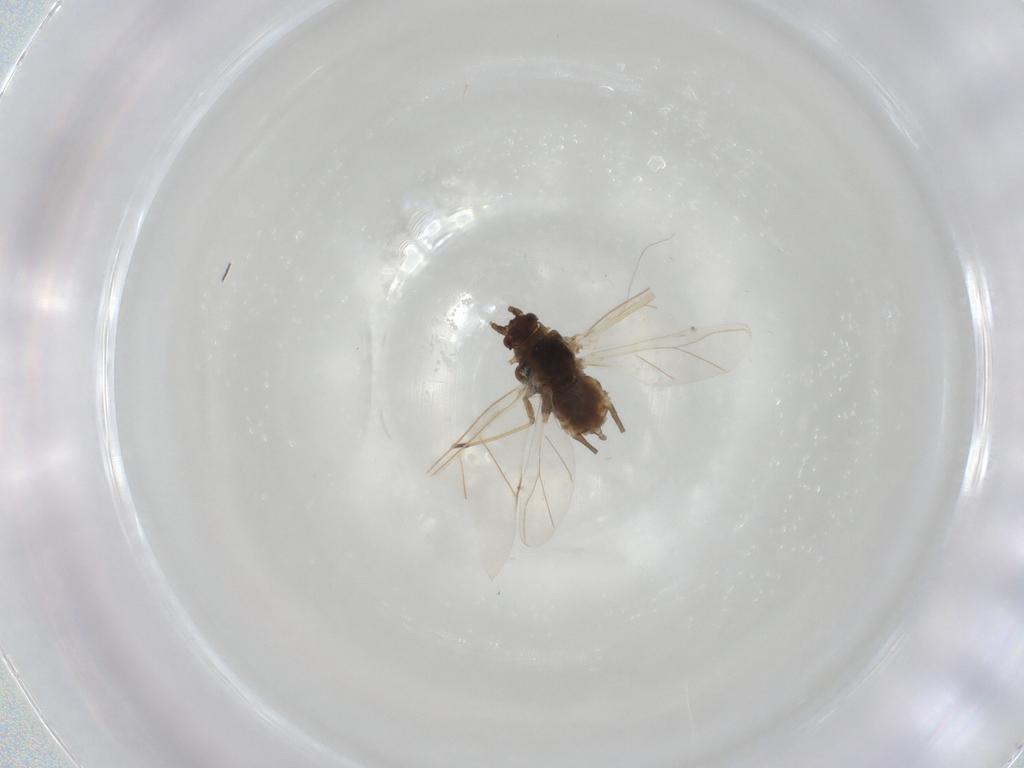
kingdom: Animalia
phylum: Arthropoda
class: Insecta
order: Hemiptera
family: Aphididae
